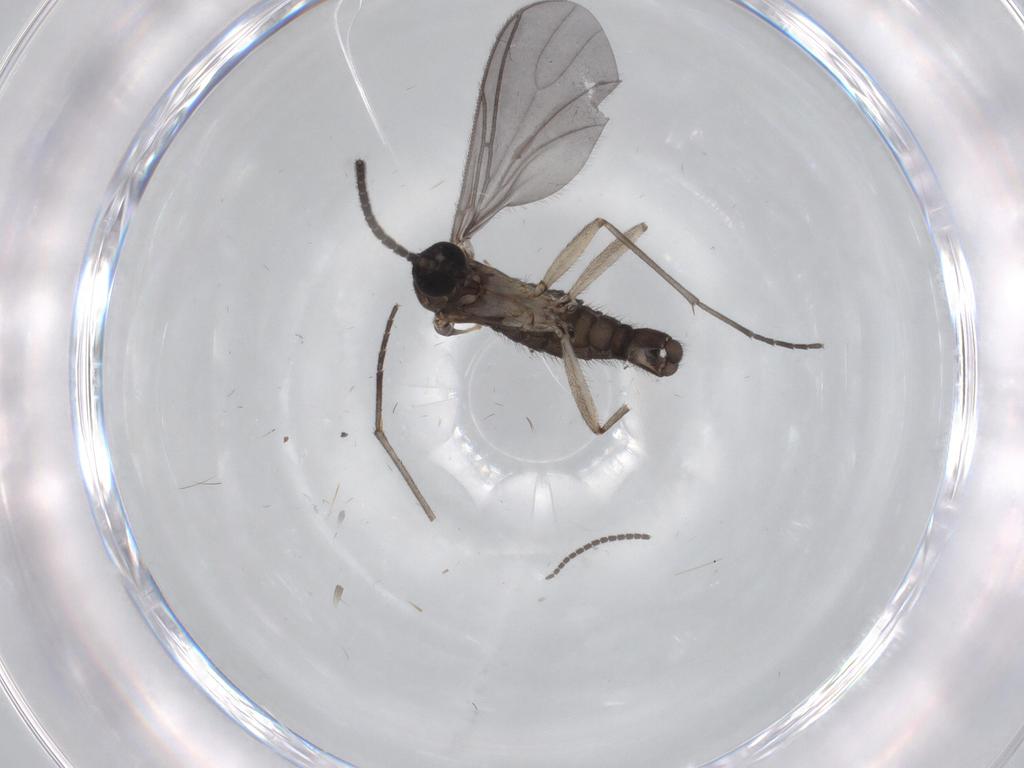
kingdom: Animalia
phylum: Arthropoda
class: Insecta
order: Diptera
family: Sciaridae
